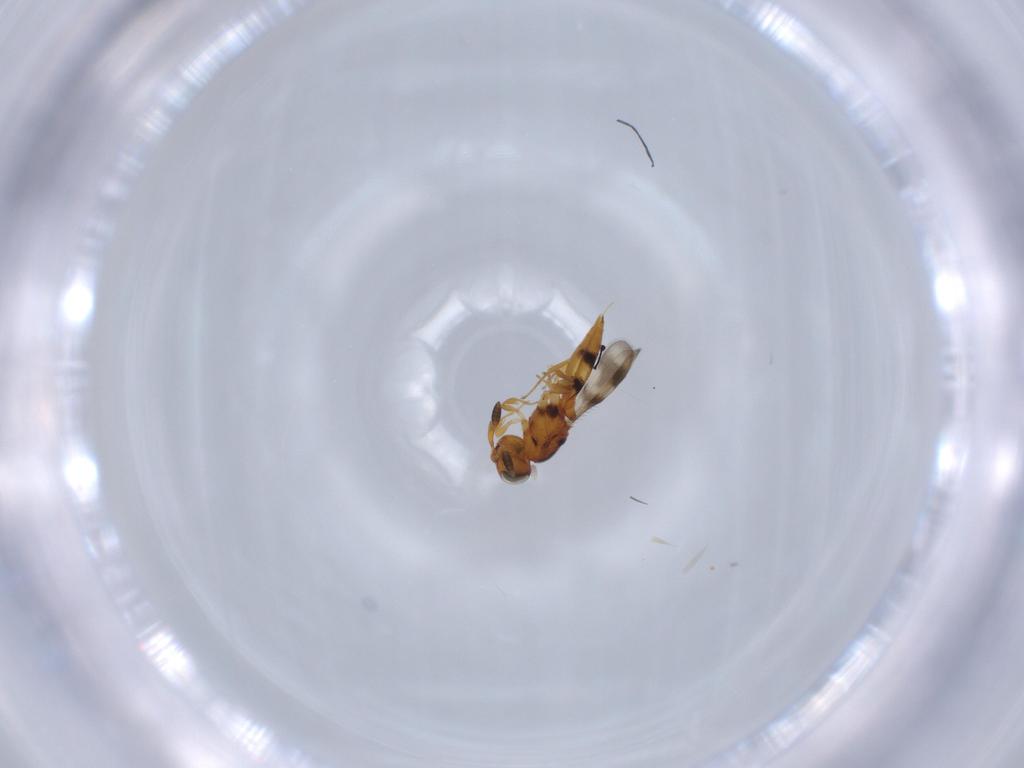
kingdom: Animalia
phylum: Arthropoda
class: Insecta
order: Hymenoptera
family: Scelionidae
